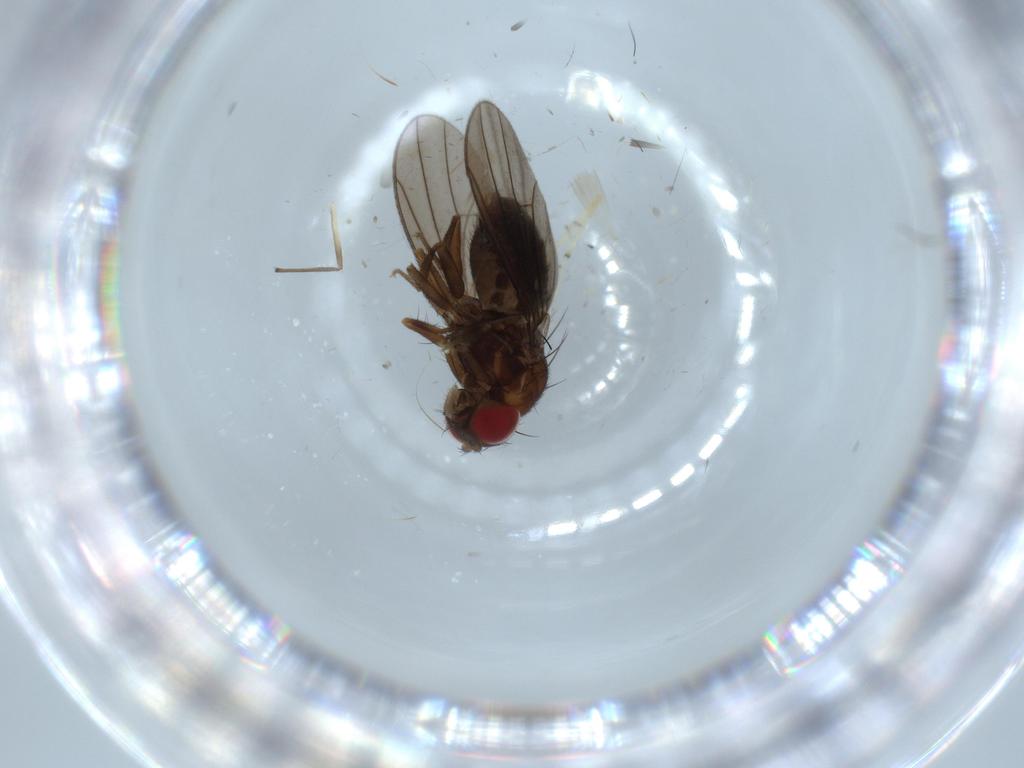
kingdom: Animalia
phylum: Arthropoda
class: Insecta
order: Diptera
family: Drosophilidae
